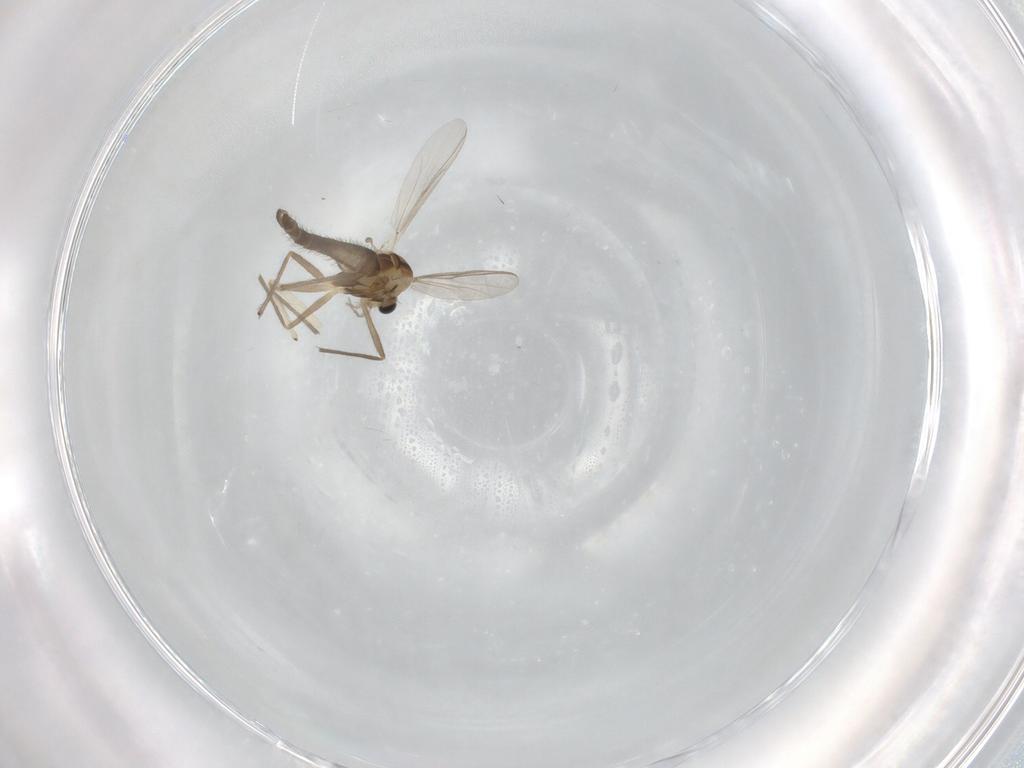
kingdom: Animalia
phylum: Arthropoda
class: Insecta
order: Diptera
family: Chironomidae
